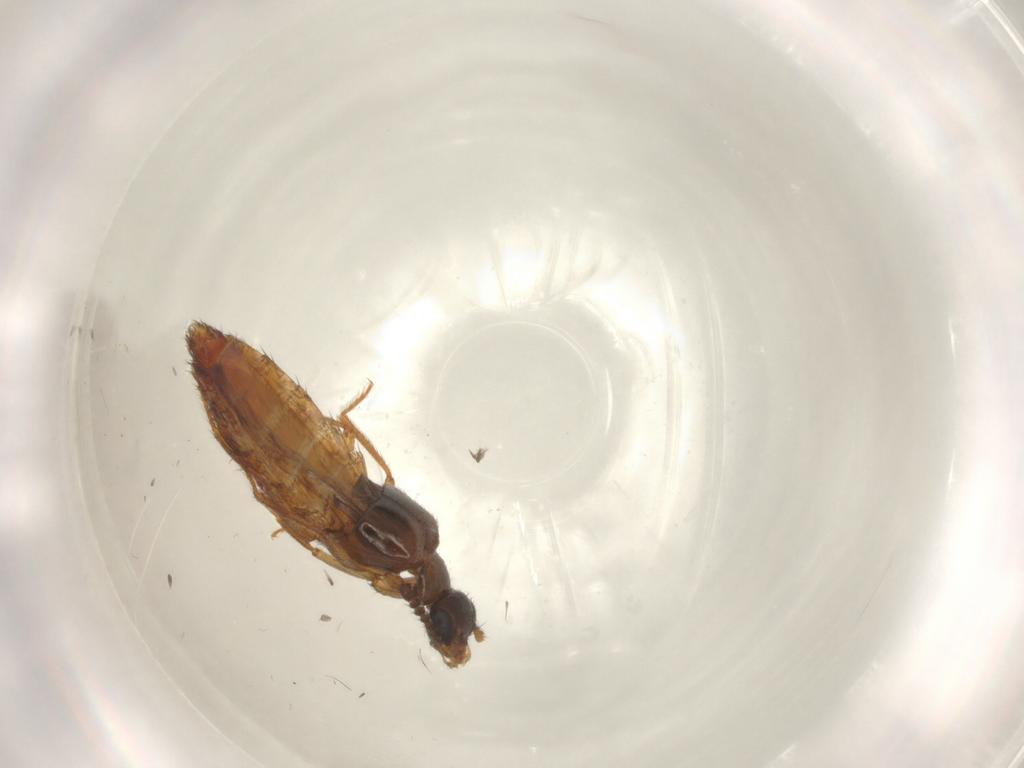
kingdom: Animalia
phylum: Arthropoda
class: Insecta
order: Coleoptera
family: Staphylinidae
